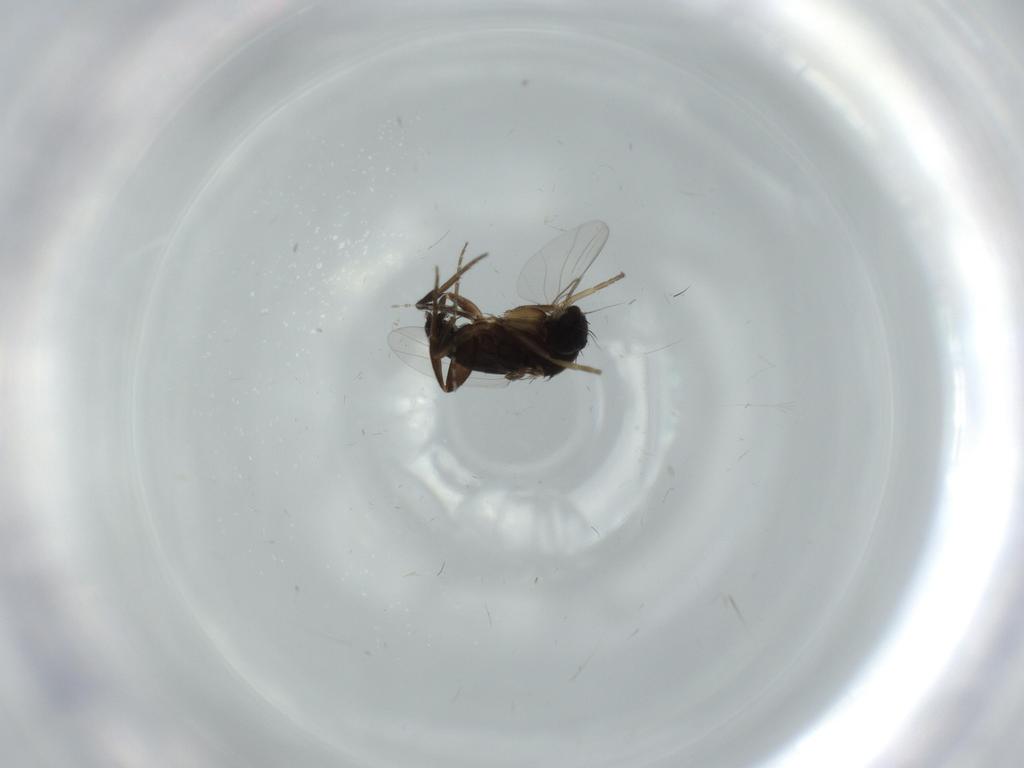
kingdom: Animalia
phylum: Arthropoda
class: Insecta
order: Diptera
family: Phoridae
